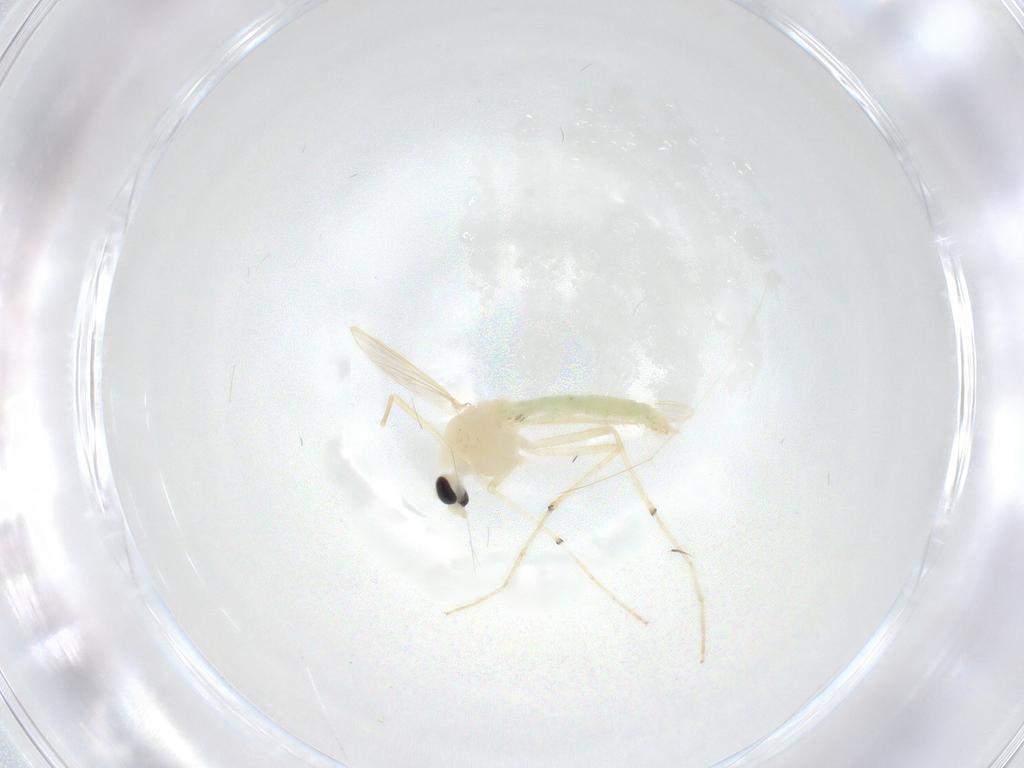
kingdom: Animalia
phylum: Arthropoda
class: Insecta
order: Diptera
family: Chironomidae
